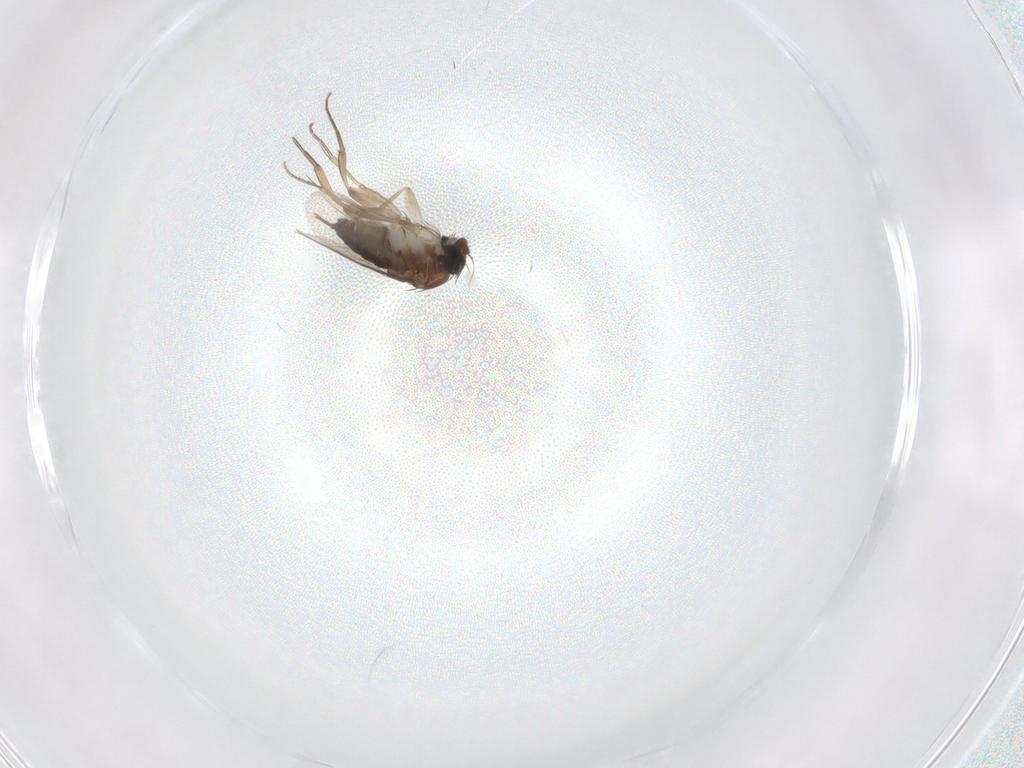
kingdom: Animalia
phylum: Arthropoda
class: Insecta
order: Diptera
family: Phoridae
